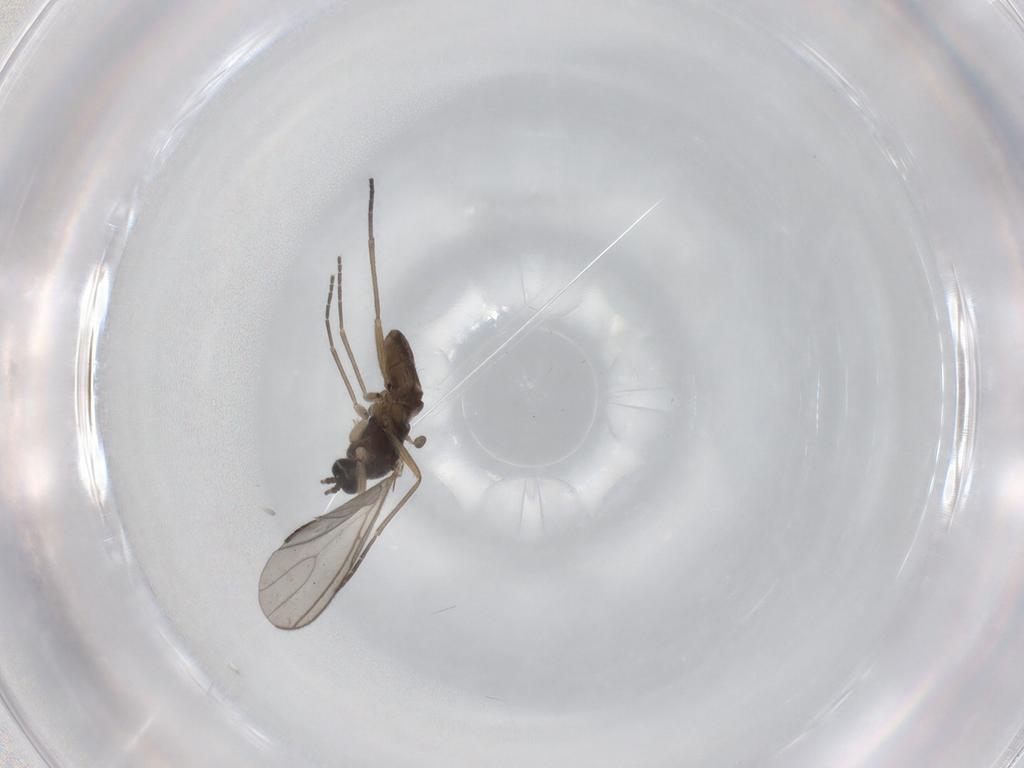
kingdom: Animalia
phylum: Arthropoda
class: Insecta
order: Diptera
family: Sciaridae
